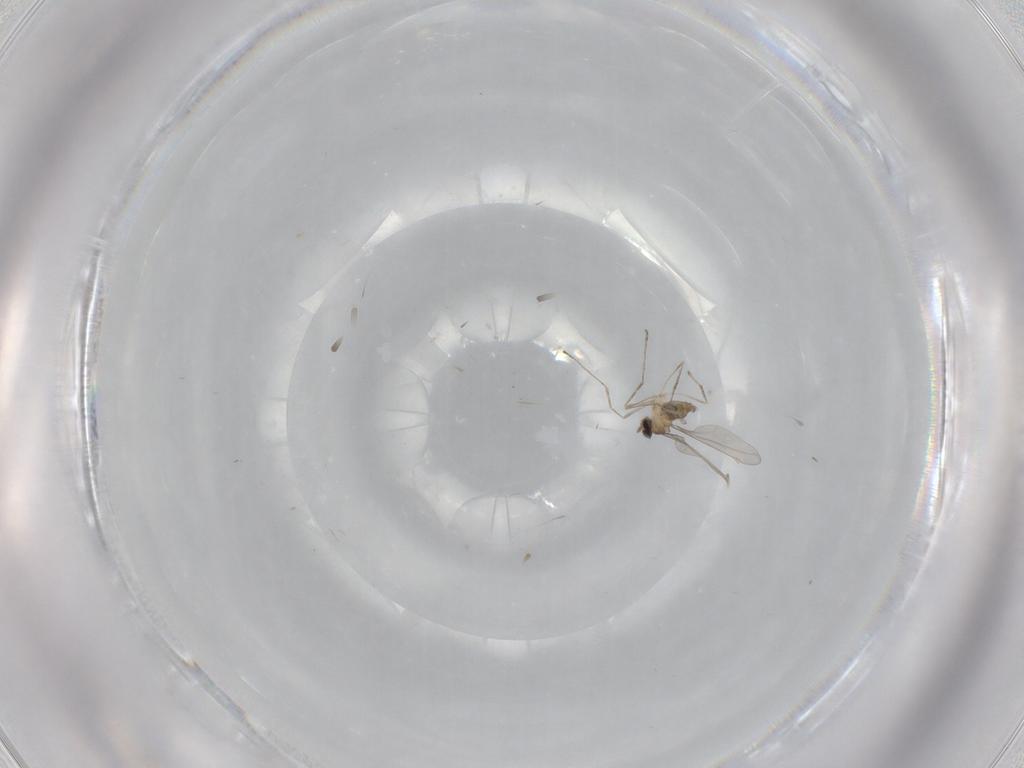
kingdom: Animalia
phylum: Arthropoda
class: Insecta
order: Diptera
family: Cecidomyiidae
